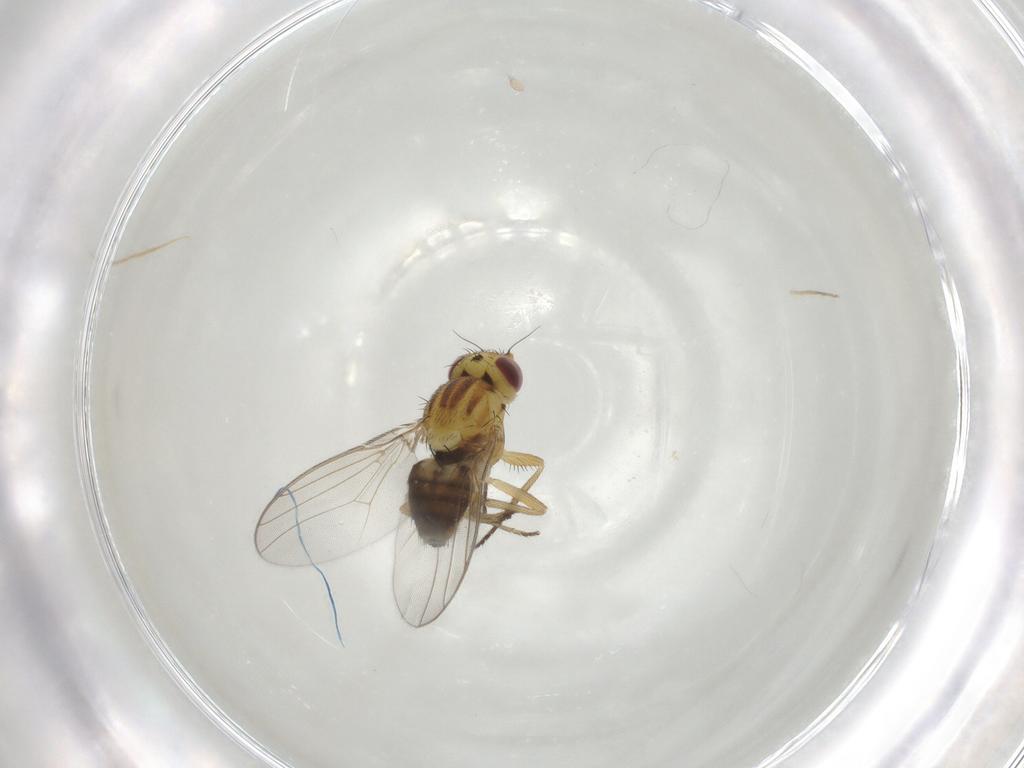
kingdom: Animalia
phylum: Arthropoda
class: Insecta
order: Diptera
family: Chloropidae
